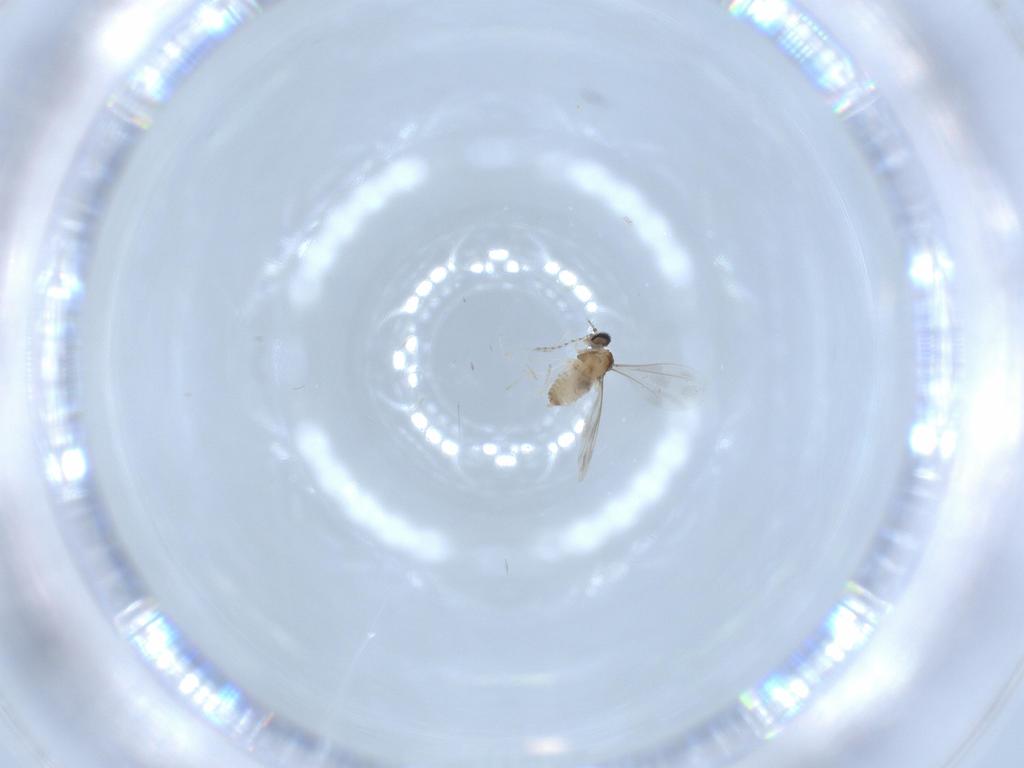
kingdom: Animalia
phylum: Arthropoda
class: Insecta
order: Diptera
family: Cecidomyiidae
